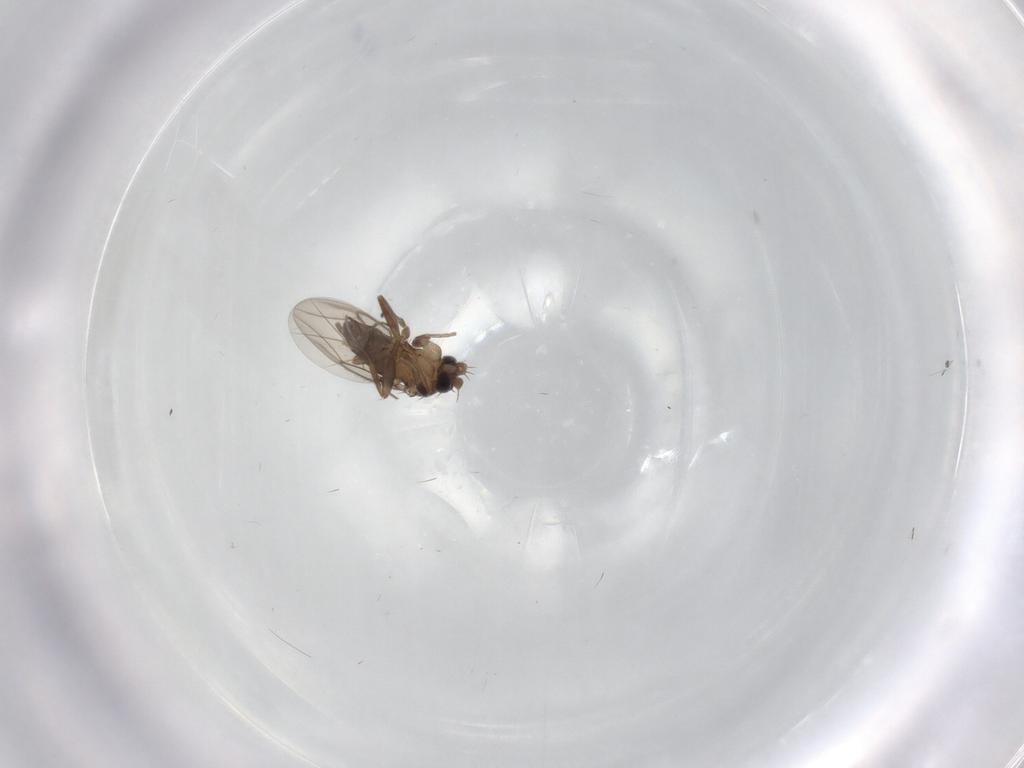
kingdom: Animalia
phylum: Arthropoda
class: Insecta
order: Diptera
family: Phoridae
